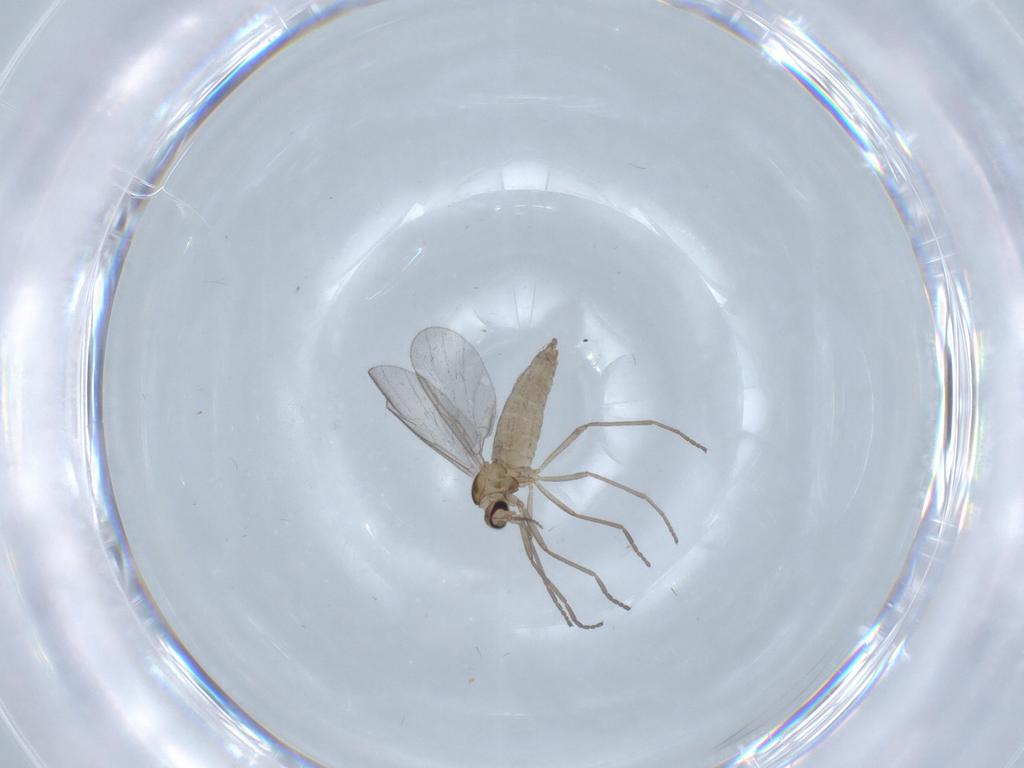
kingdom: Animalia
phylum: Arthropoda
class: Insecta
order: Diptera
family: Cecidomyiidae
